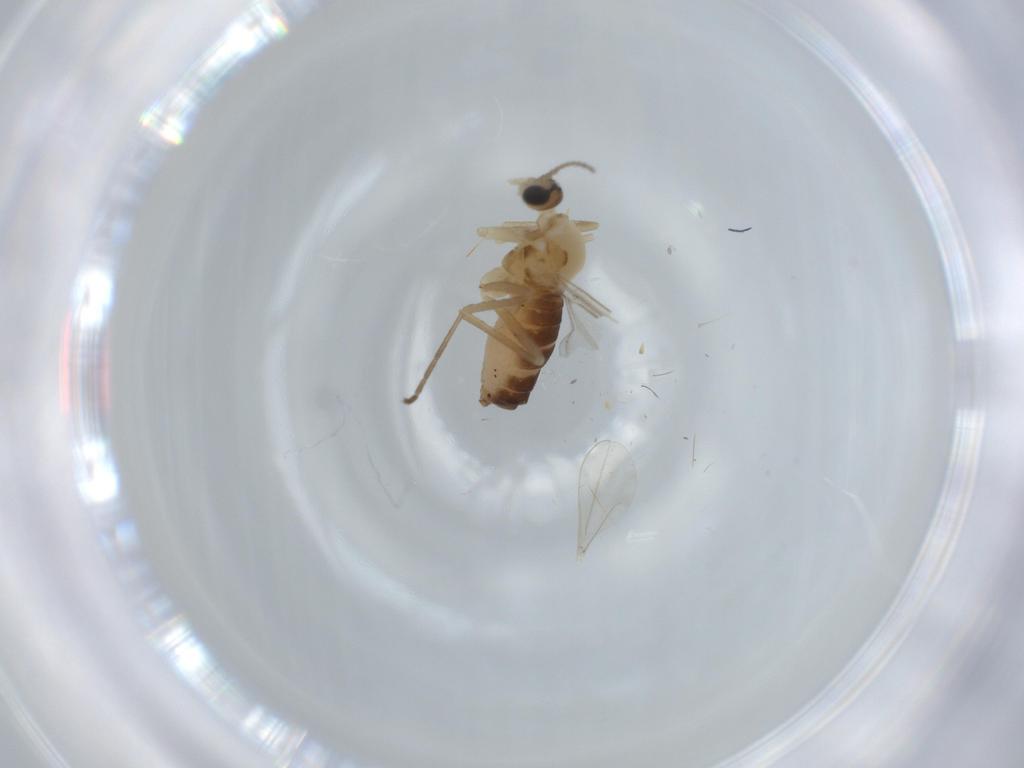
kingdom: Animalia
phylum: Arthropoda
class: Insecta
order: Diptera
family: Cecidomyiidae
